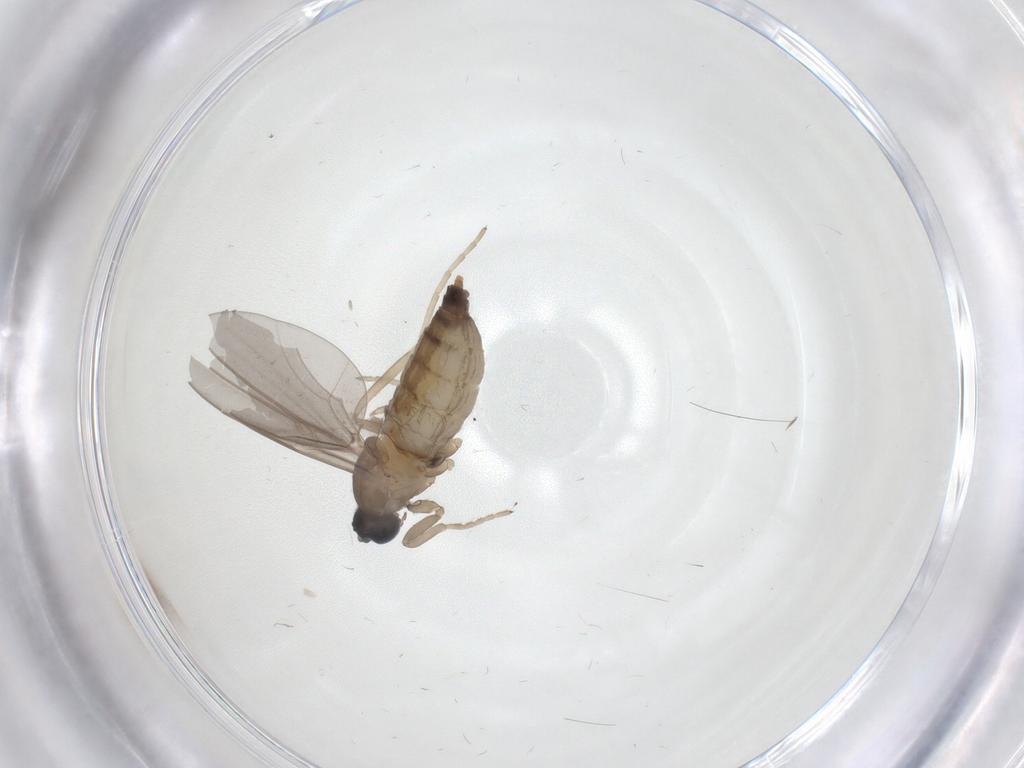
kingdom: Animalia
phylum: Arthropoda
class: Insecta
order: Diptera
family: Cecidomyiidae
